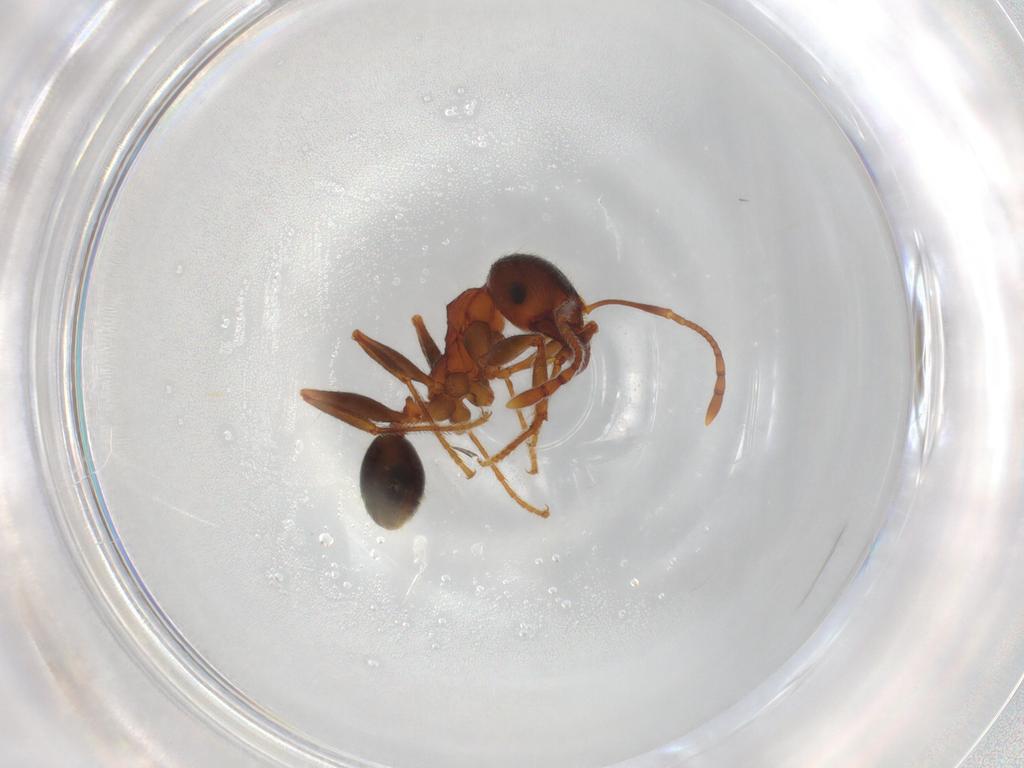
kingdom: Animalia
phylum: Arthropoda
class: Insecta
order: Hymenoptera
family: Formicidae
